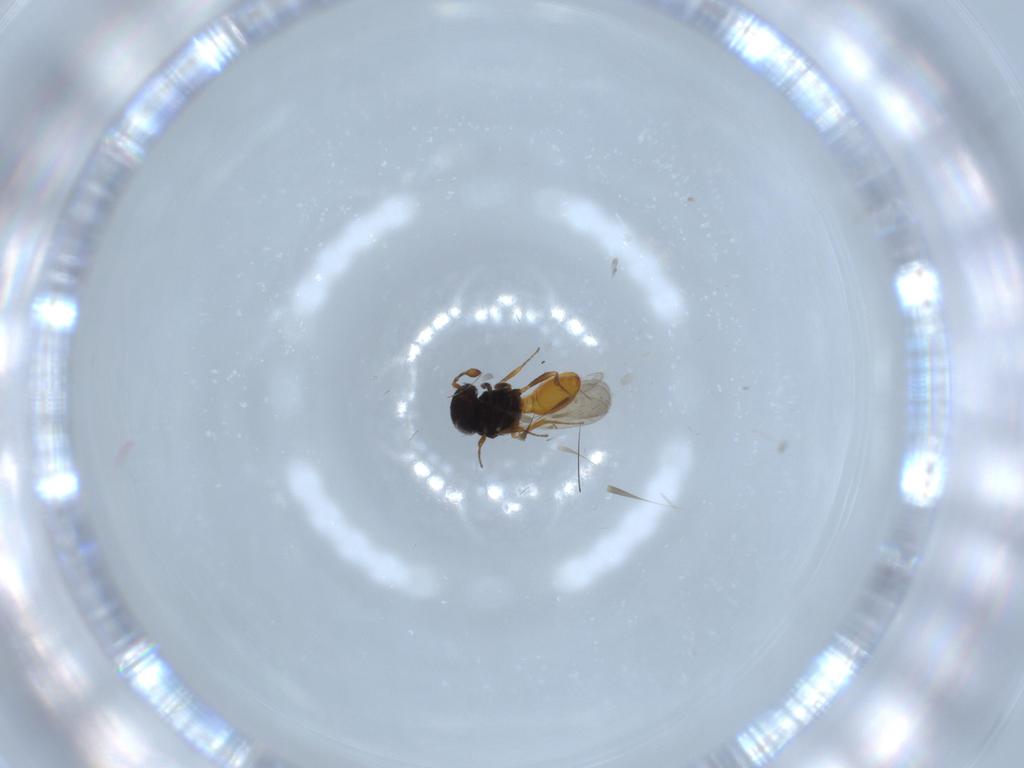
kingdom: Animalia
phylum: Arthropoda
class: Insecta
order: Hymenoptera
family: Scelionidae
